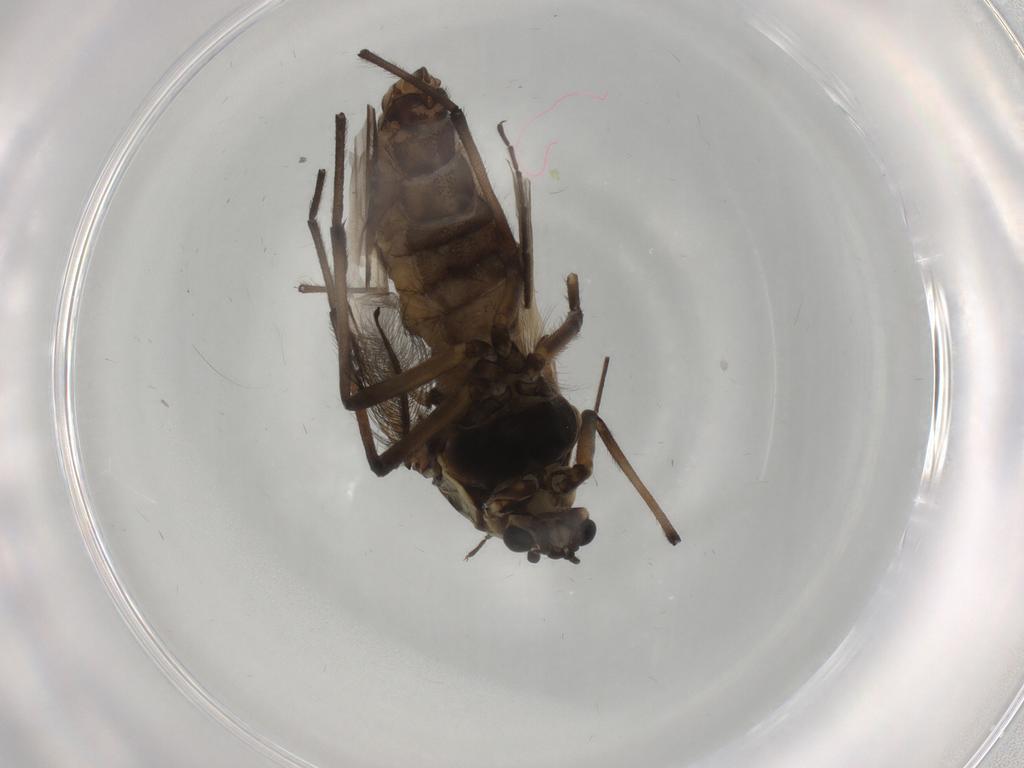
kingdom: Animalia
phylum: Arthropoda
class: Insecta
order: Diptera
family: Chironomidae
